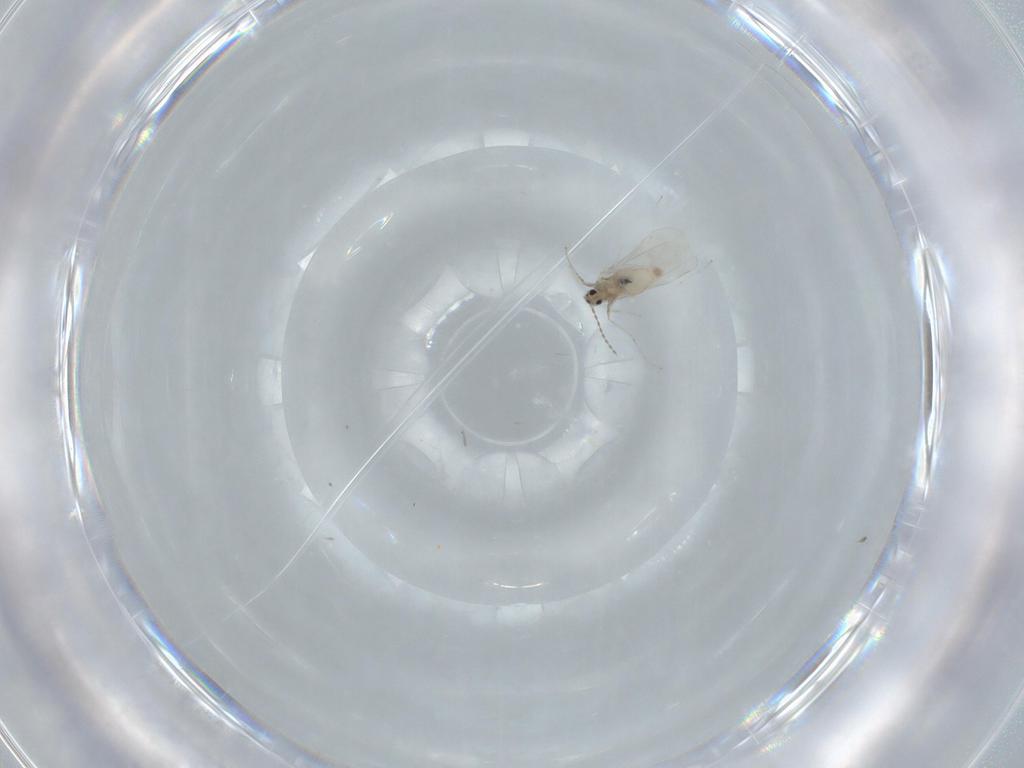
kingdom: Animalia
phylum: Arthropoda
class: Insecta
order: Diptera
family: Cecidomyiidae
